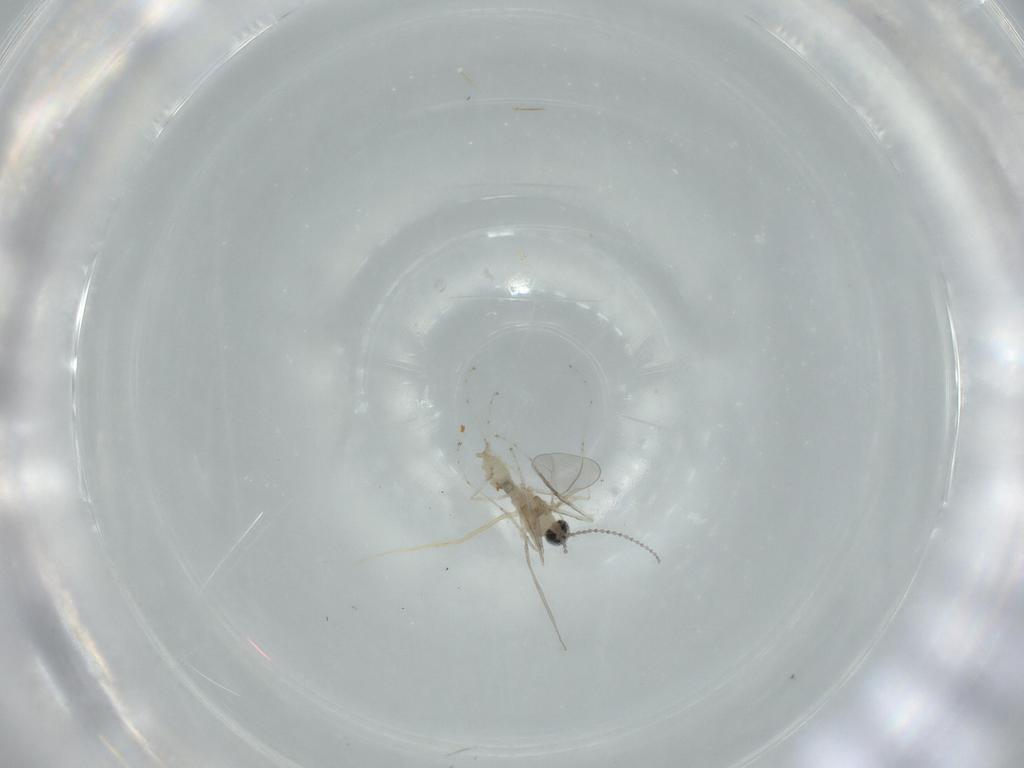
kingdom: Animalia
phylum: Arthropoda
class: Insecta
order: Diptera
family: Cecidomyiidae
